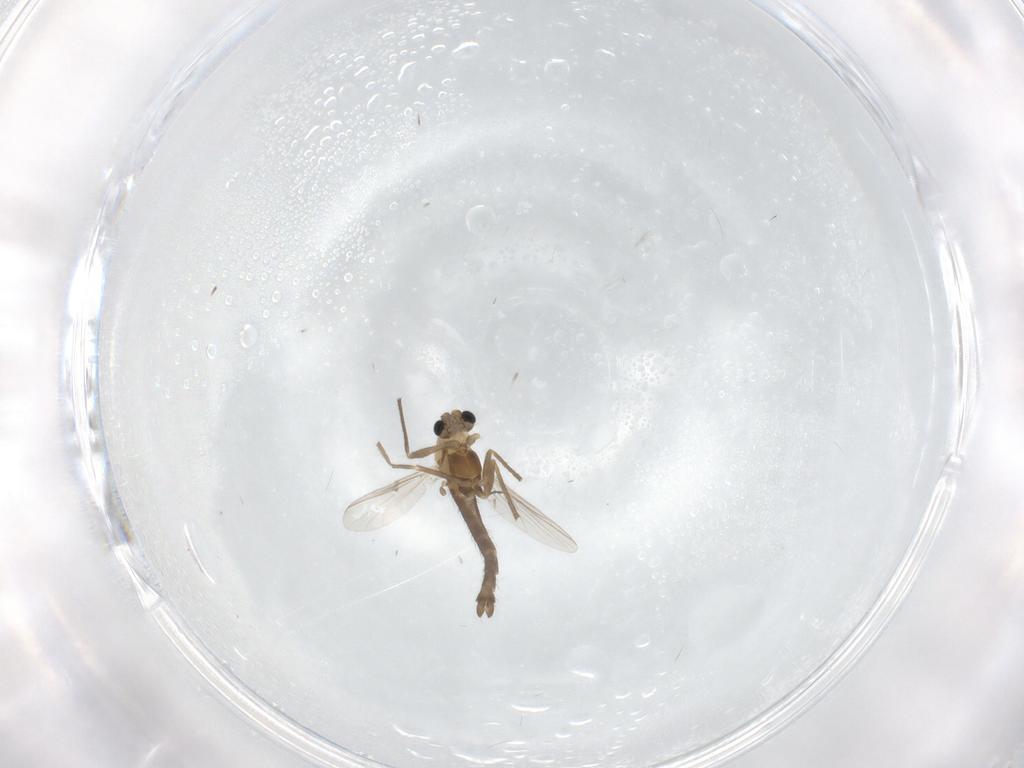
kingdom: Animalia
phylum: Arthropoda
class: Insecta
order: Diptera
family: Chironomidae
